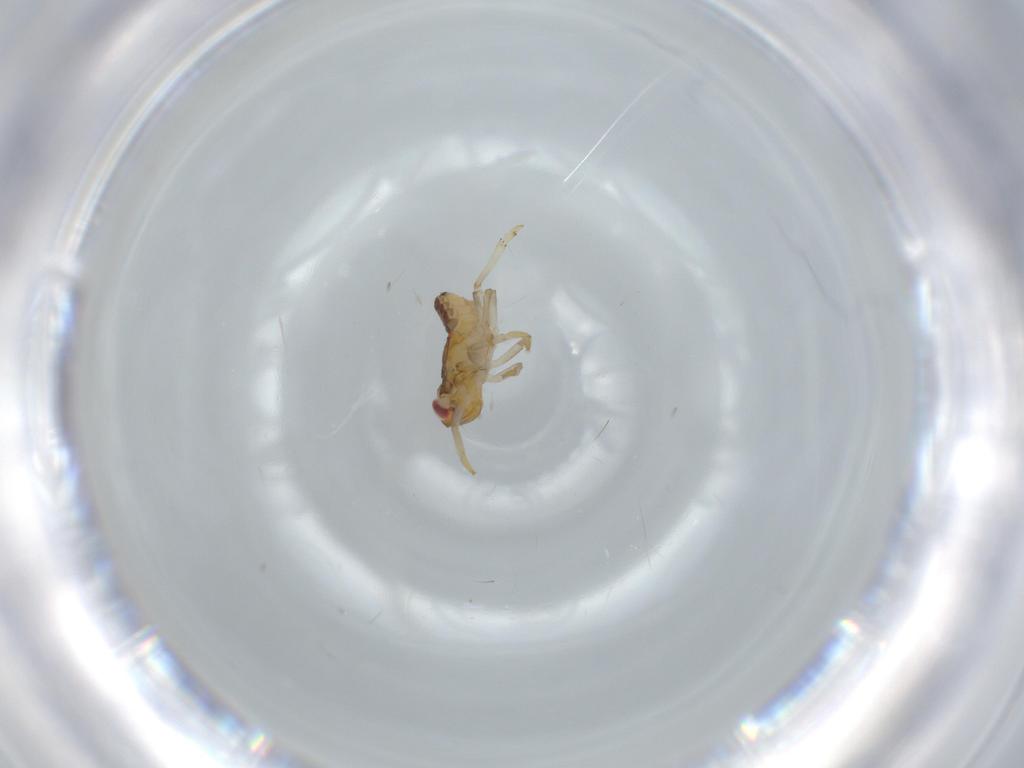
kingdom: Animalia
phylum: Arthropoda
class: Insecta
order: Hemiptera
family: Issidae
